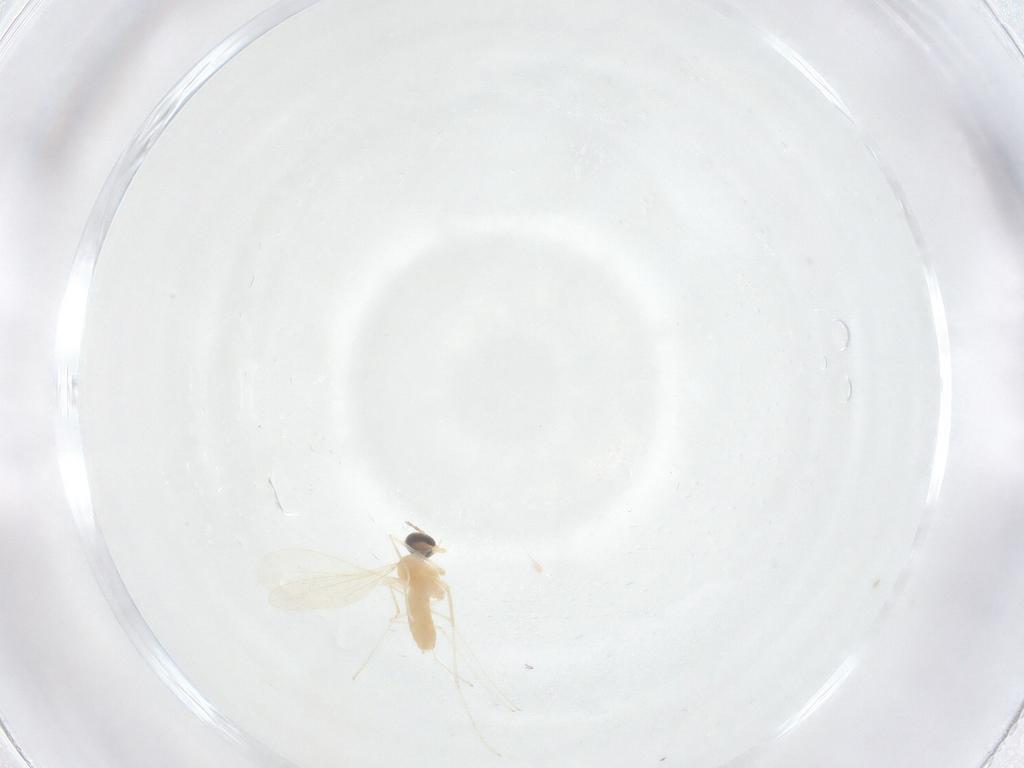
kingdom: Animalia
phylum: Arthropoda
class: Insecta
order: Diptera
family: Cecidomyiidae
